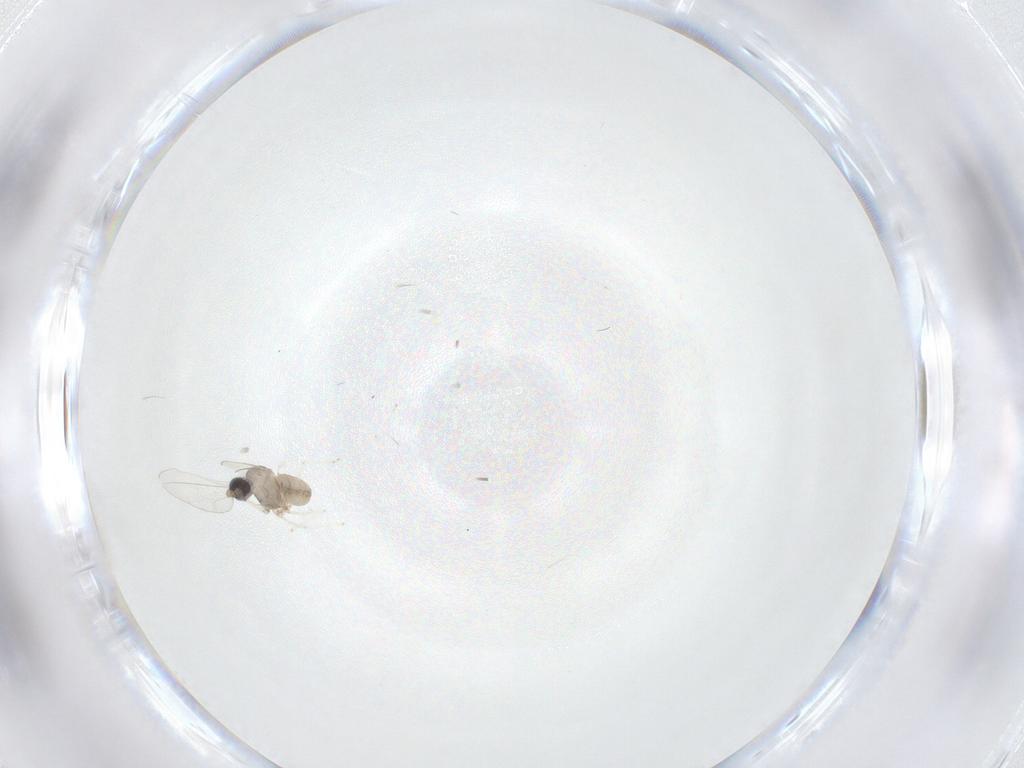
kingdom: Animalia
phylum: Arthropoda
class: Insecta
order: Diptera
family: Cecidomyiidae
